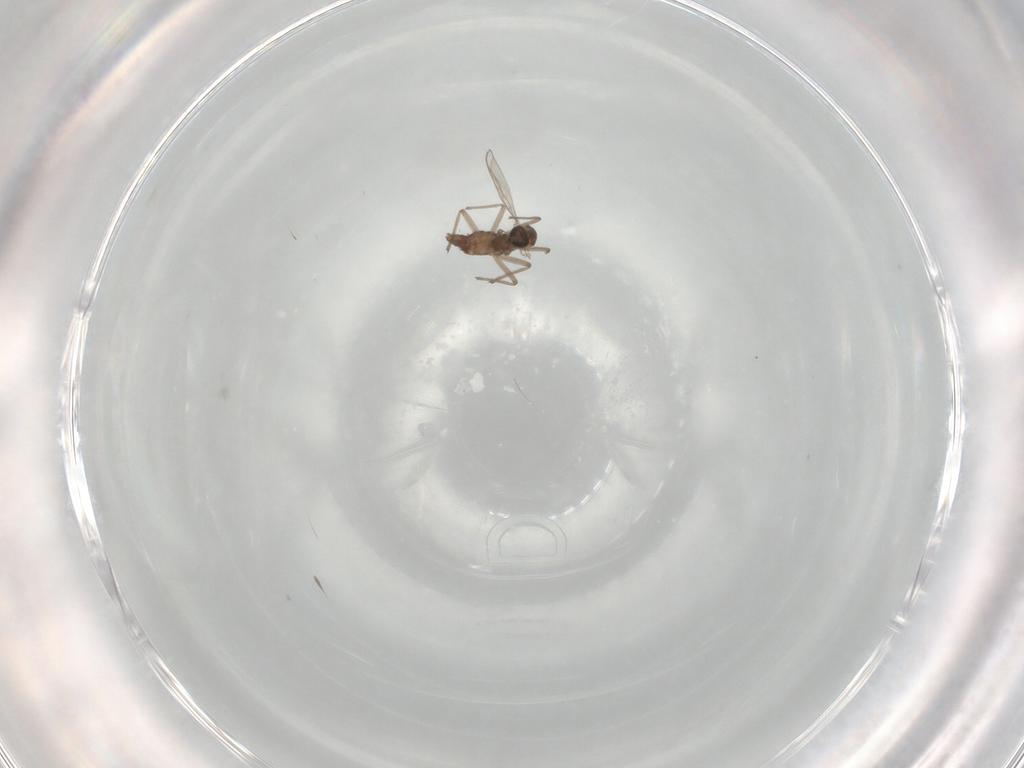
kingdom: Animalia
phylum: Arthropoda
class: Insecta
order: Diptera
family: Chironomidae
